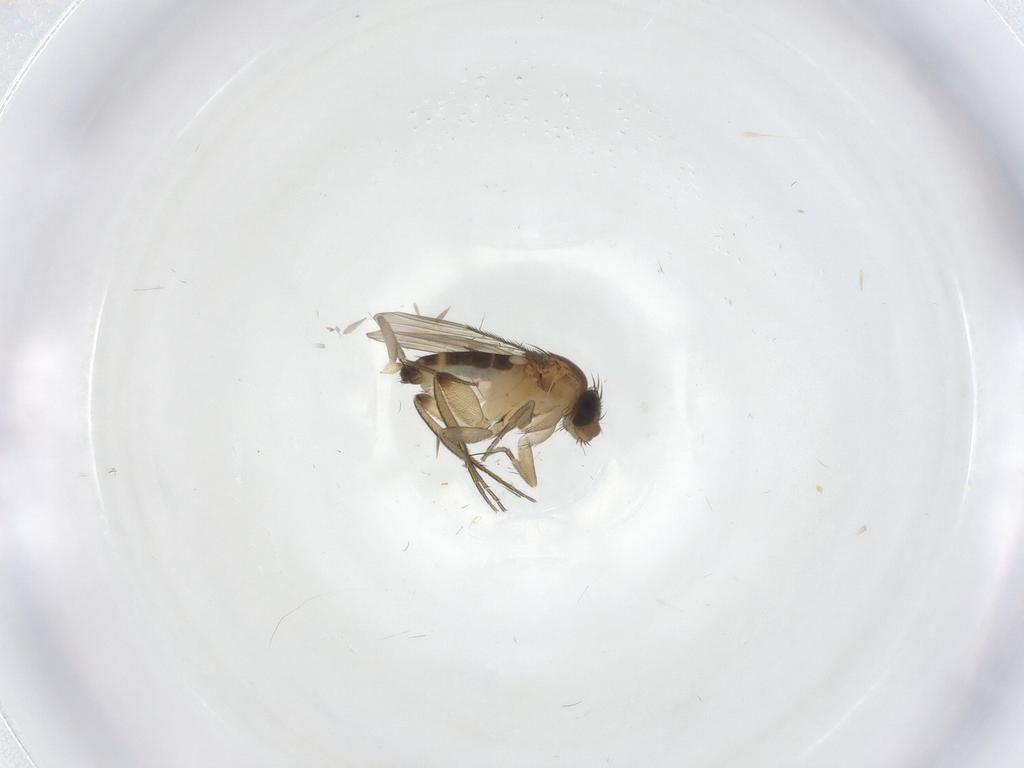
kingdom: Animalia
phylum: Arthropoda
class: Insecta
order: Diptera
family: Phoridae
